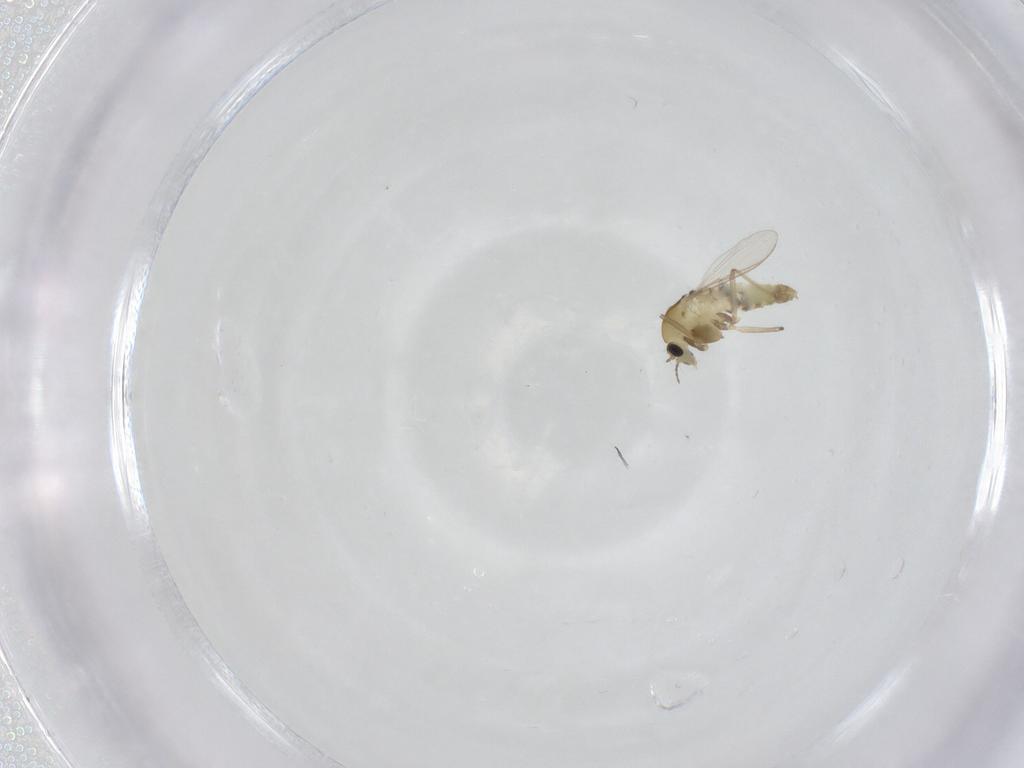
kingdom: Animalia
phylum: Arthropoda
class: Insecta
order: Diptera
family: Chironomidae
